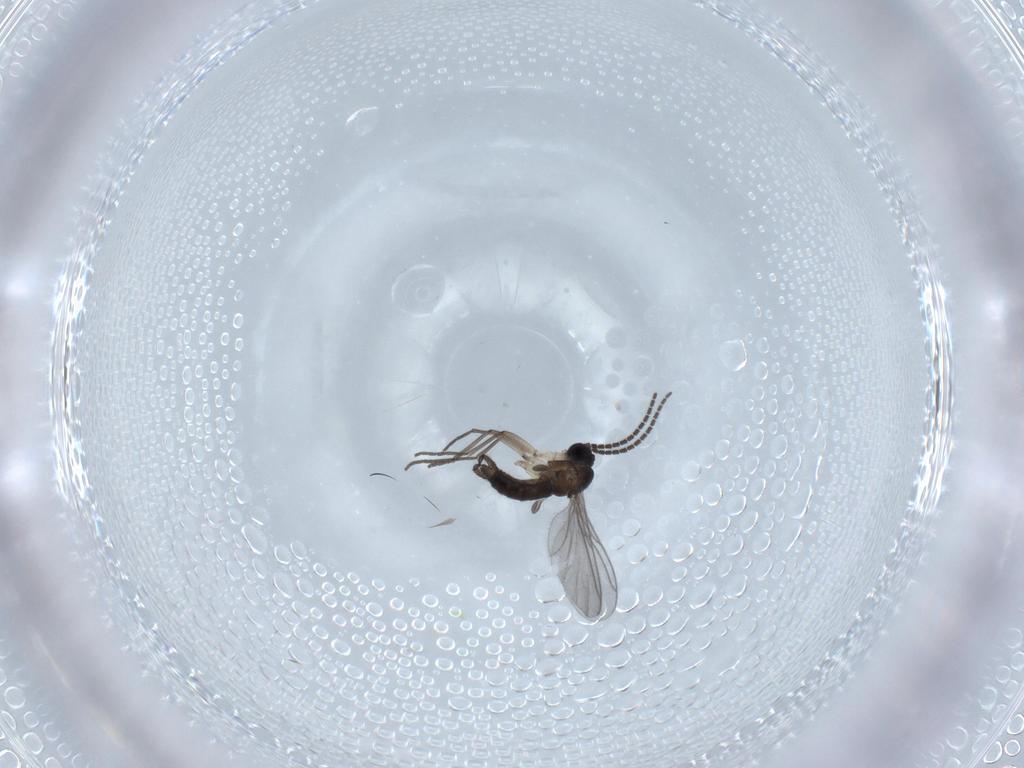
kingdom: Animalia
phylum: Arthropoda
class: Insecta
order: Diptera
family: Sciaridae
